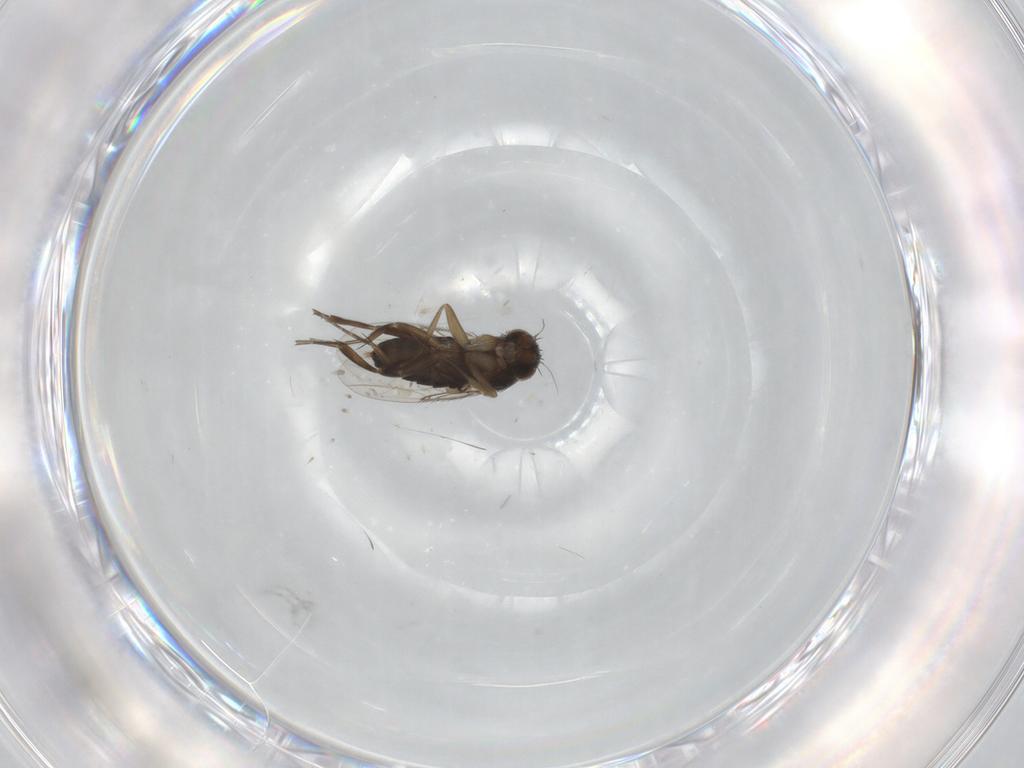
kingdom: Animalia
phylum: Arthropoda
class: Insecta
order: Diptera
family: Phoridae
